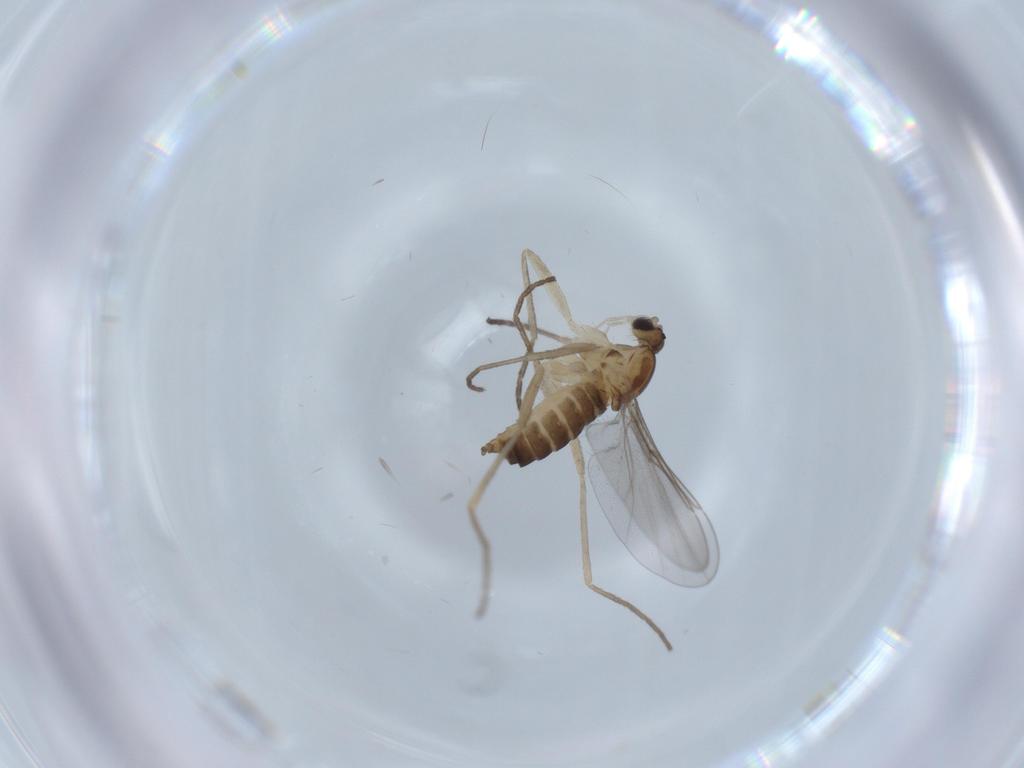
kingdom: Animalia
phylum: Arthropoda
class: Insecta
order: Diptera
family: Cecidomyiidae
